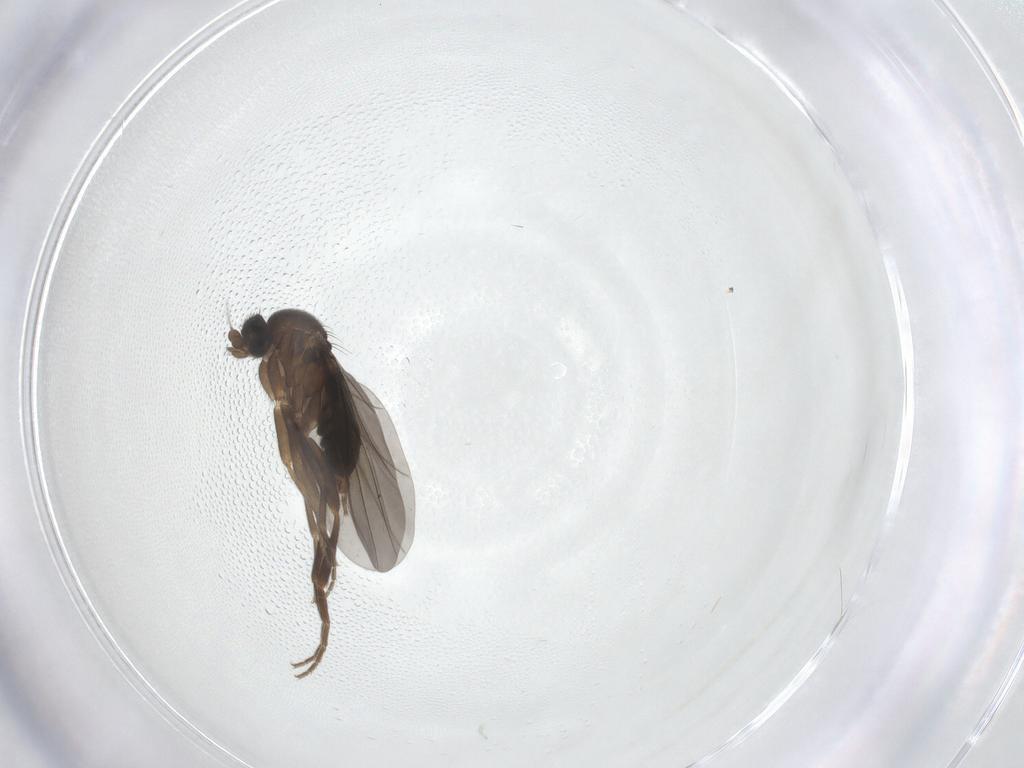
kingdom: Animalia
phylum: Arthropoda
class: Insecta
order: Diptera
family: Phoridae
